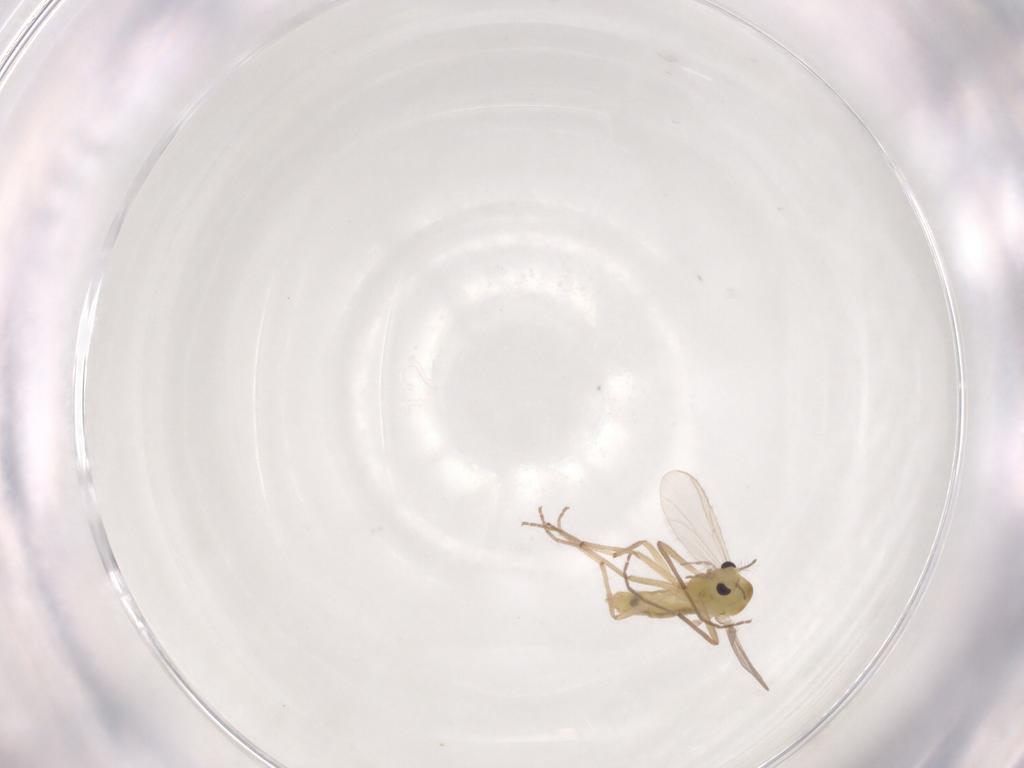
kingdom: Animalia
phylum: Arthropoda
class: Insecta
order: Diptera
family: Chironomidae
